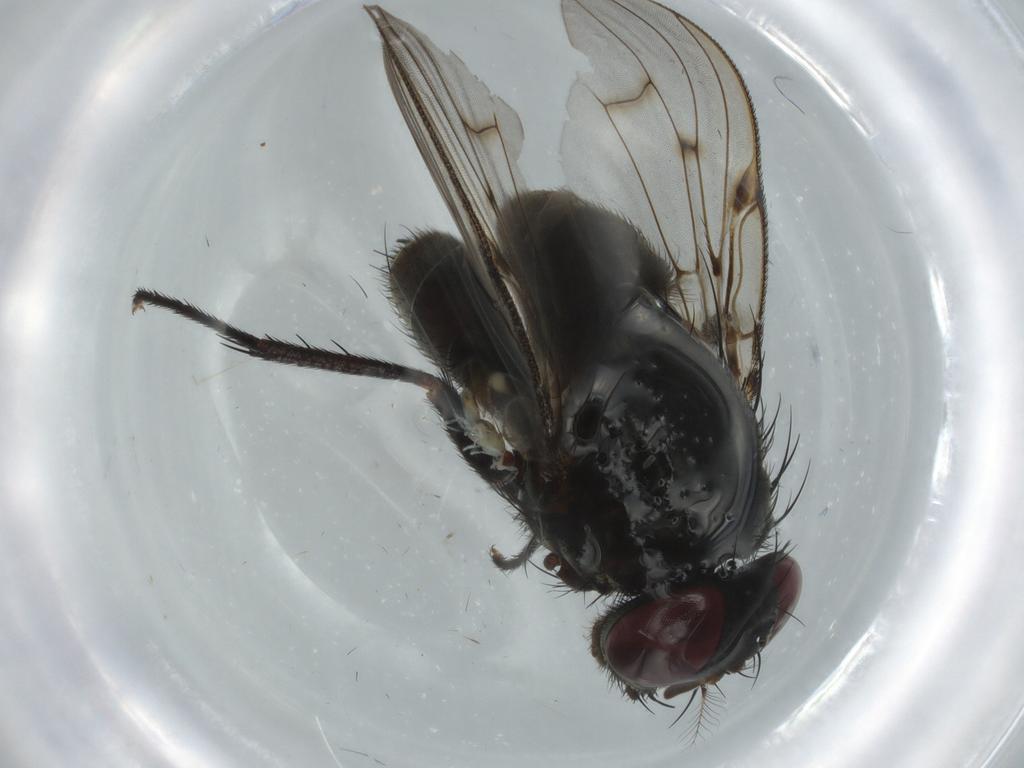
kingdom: Animalia
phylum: Arthropoda
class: Insecta
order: Diptera
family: Muscidae
